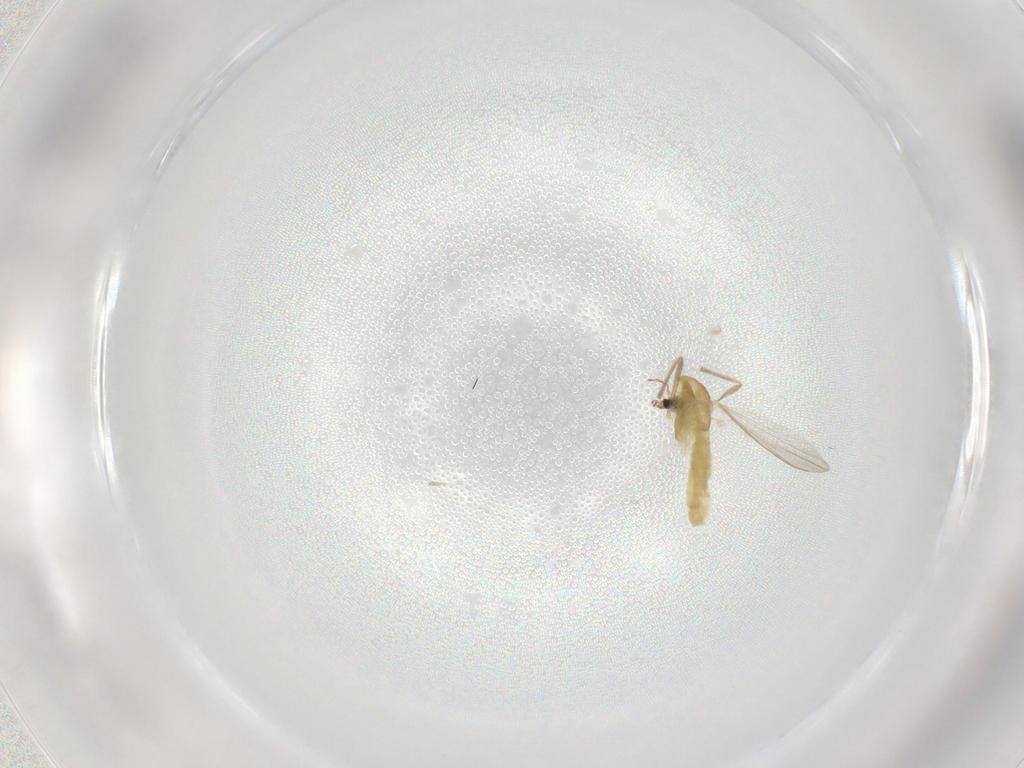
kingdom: Animalia
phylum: Arthropoda
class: Insecta
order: Diptera
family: Chironomidae
